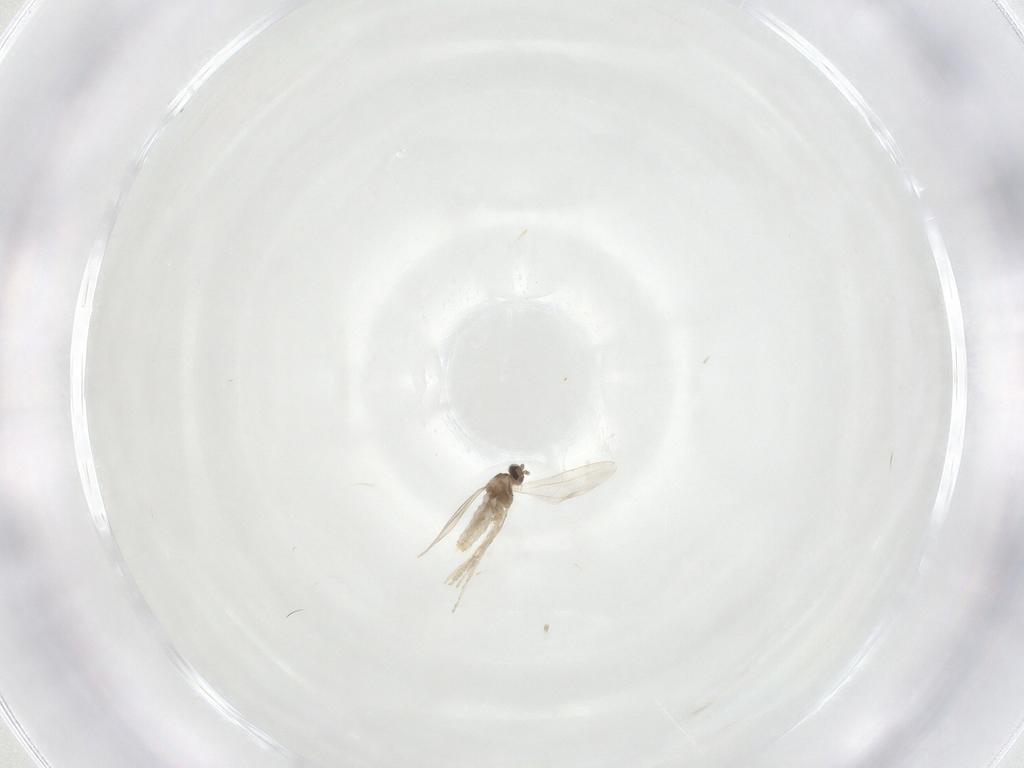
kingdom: Animalia
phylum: Arthropoda
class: Insecta
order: Diptera
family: Cecidomyiidae
